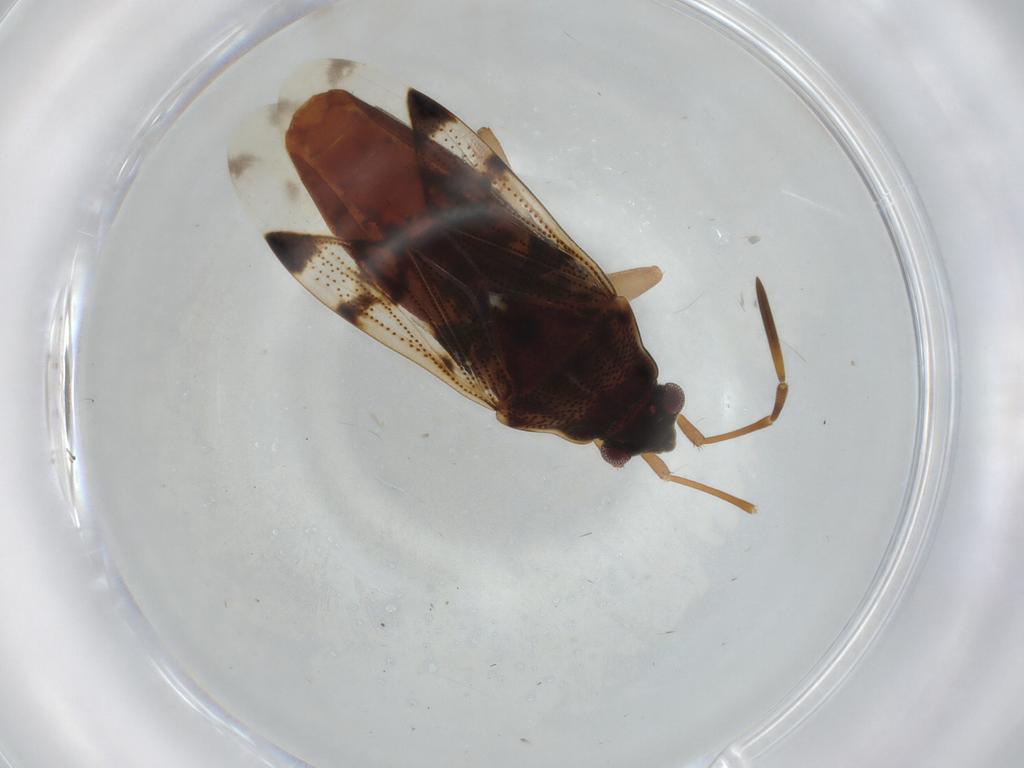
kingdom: Animalia
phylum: Arthropoda
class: Insecta
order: Hemiptera
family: Rhyparochromidae
